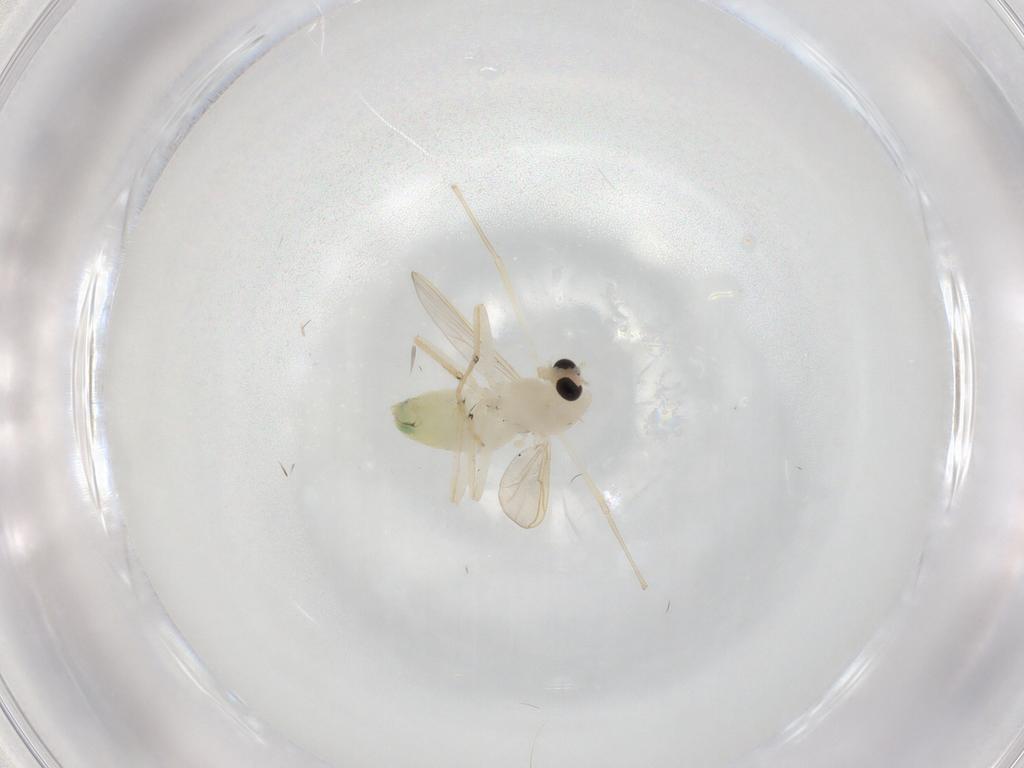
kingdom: Animalia
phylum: Arthropoda
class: Insecta
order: Diptera
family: Chironomidae
